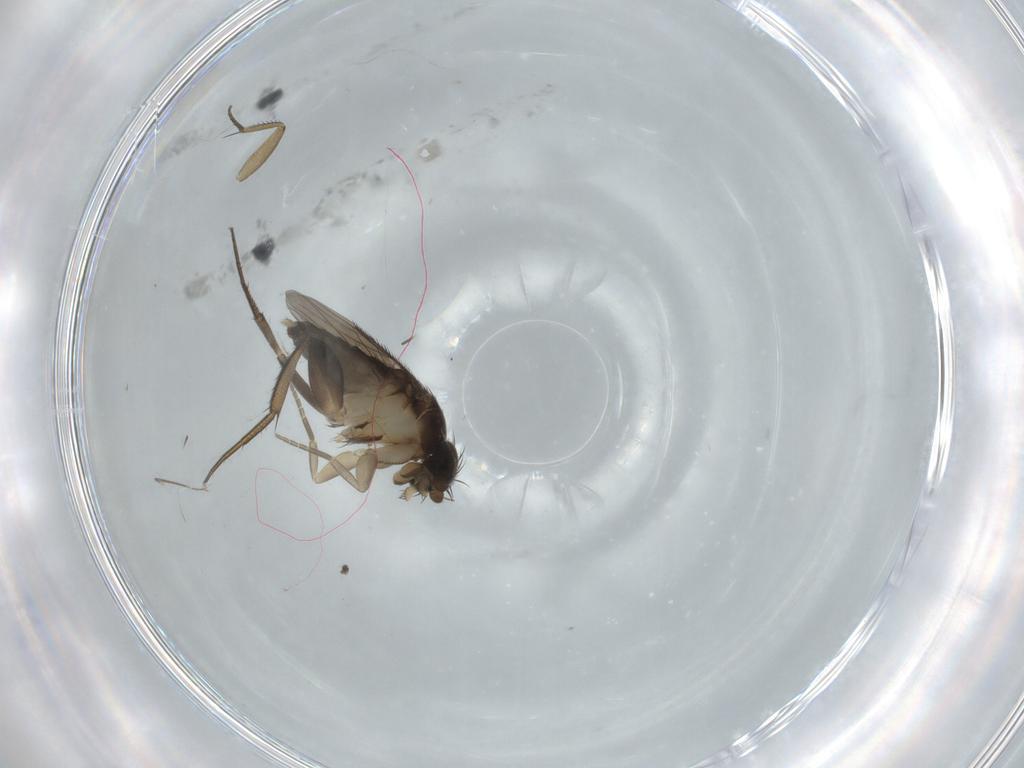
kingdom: Animalia
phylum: Arthropoda
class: Insecta
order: Diptera
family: Phoridae
